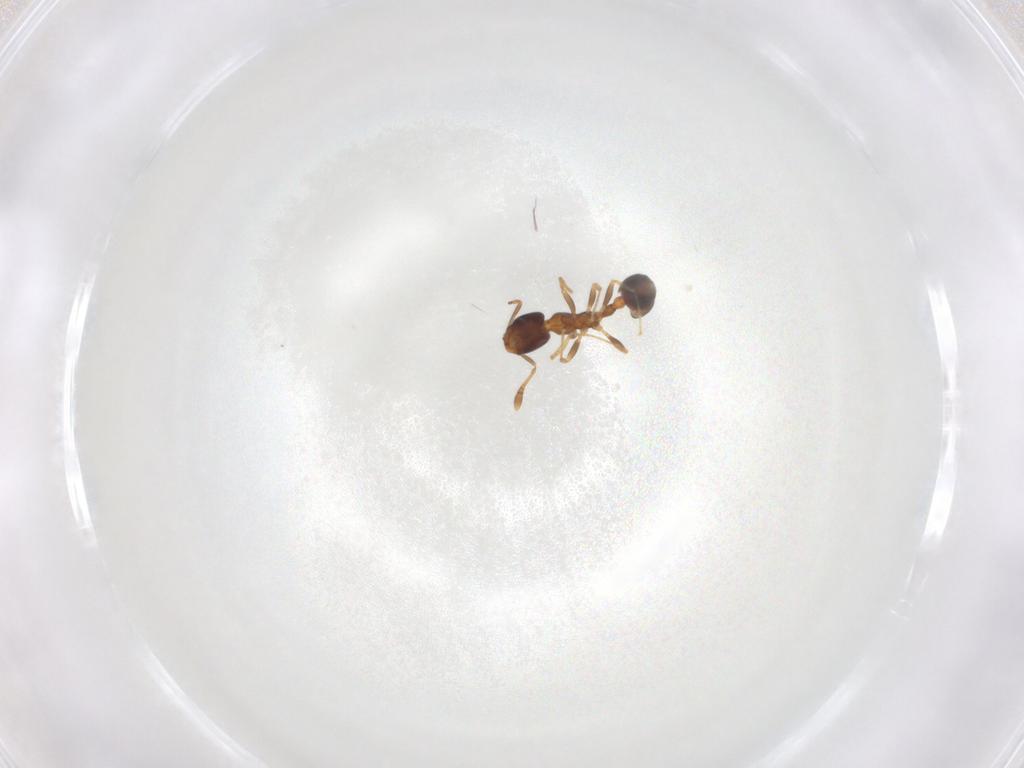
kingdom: Animalia
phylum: Arthropoda
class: Insecta
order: Hymenoptera
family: Formicidae
